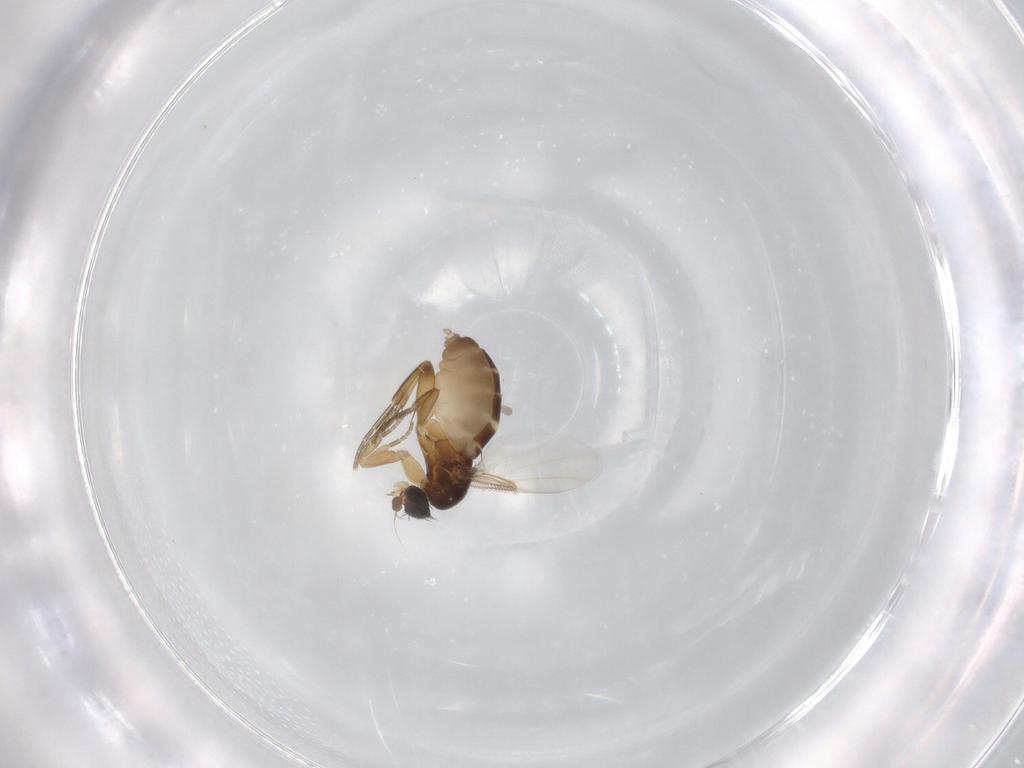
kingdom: Animalia
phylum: Arthropoda
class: Insecta
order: Diptera
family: Phoridae
